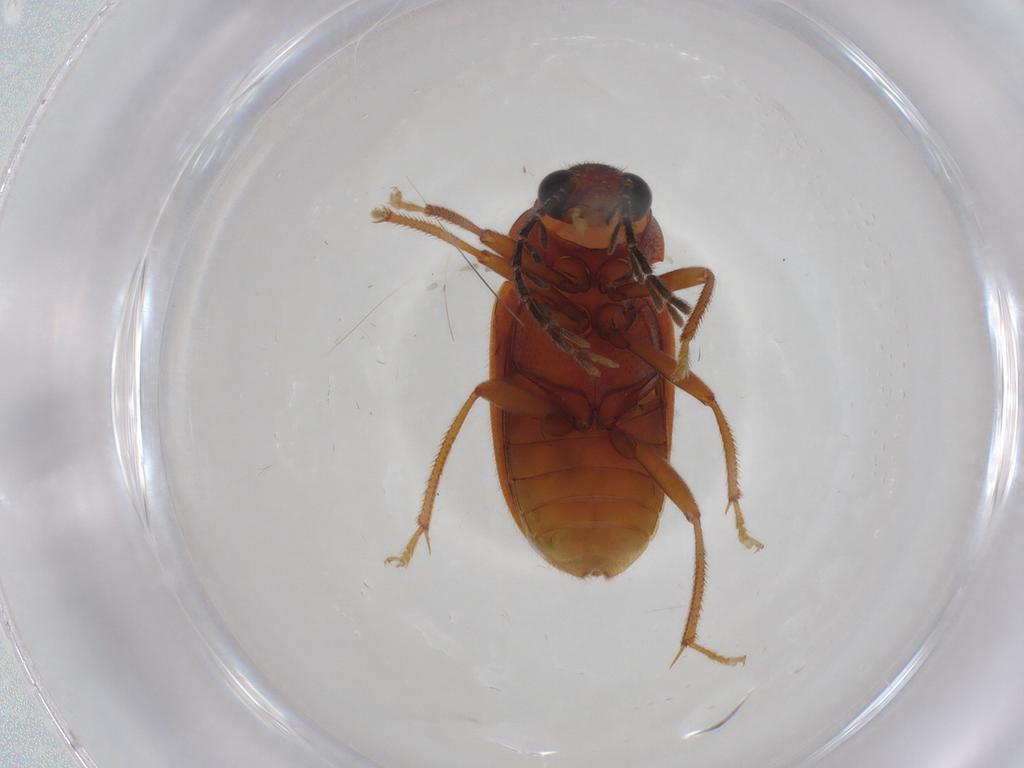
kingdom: Animalia
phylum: Arthropoda
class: Insecta
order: Coleoptera
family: Ptilodactylidae
